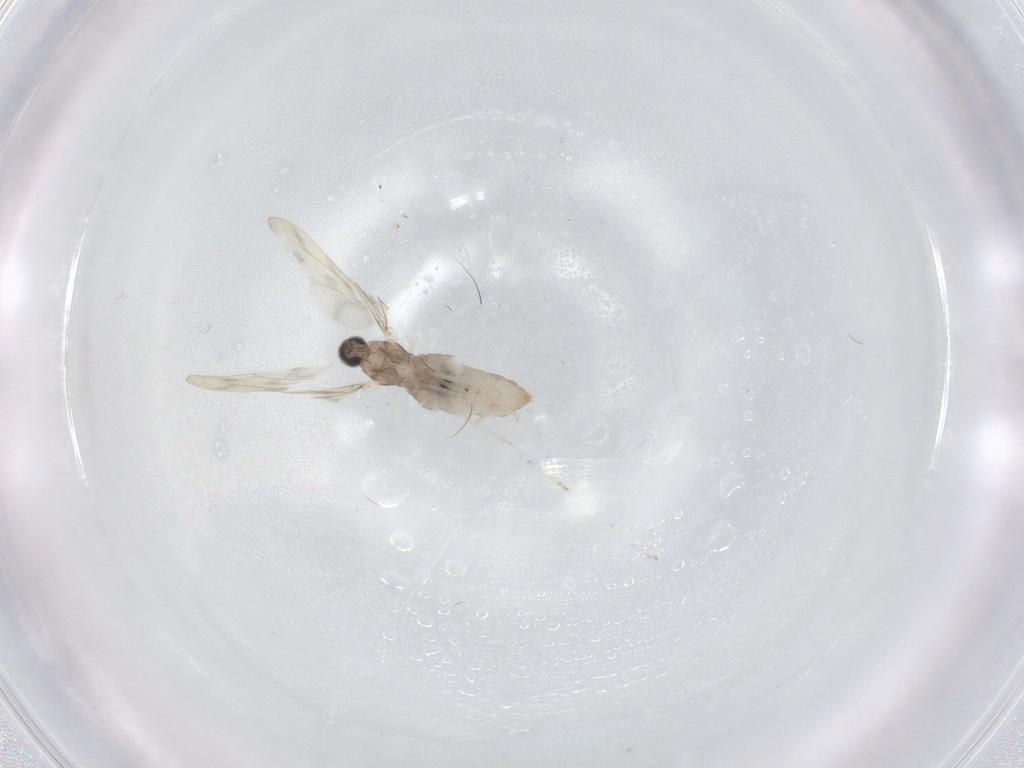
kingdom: Animalia
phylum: Arthropoda
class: Insecta
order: Diptera
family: Cecidomyiidae
